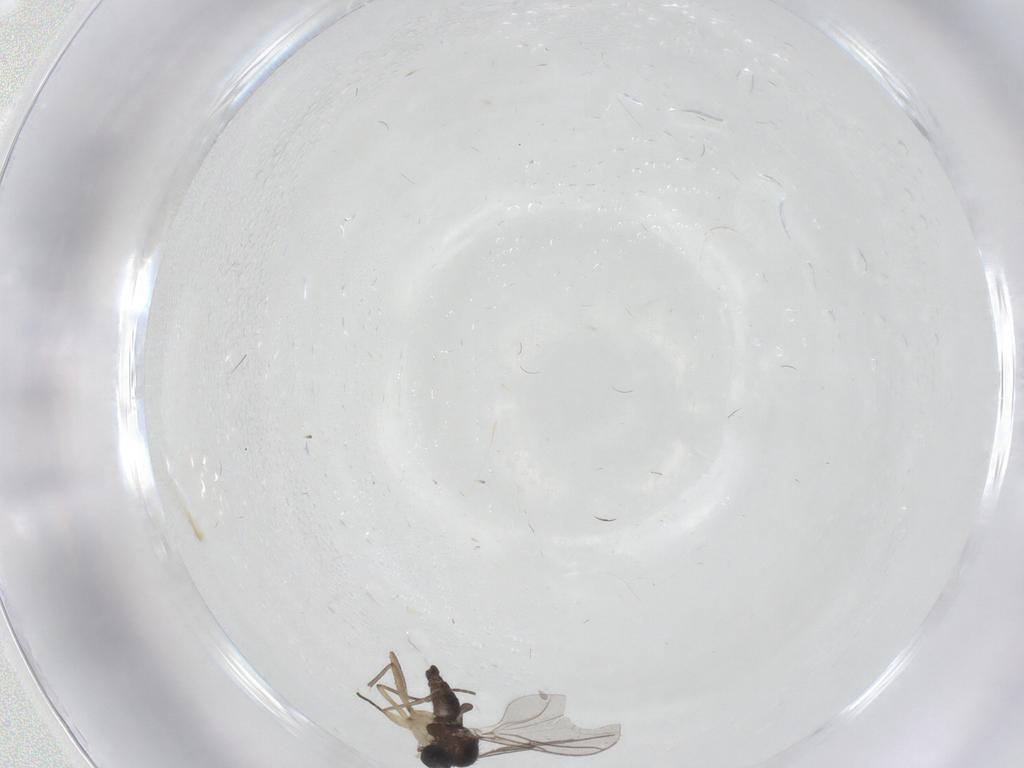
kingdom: Animalia
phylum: Arthropoda
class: Insecta
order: Diptera
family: Sciaridae
